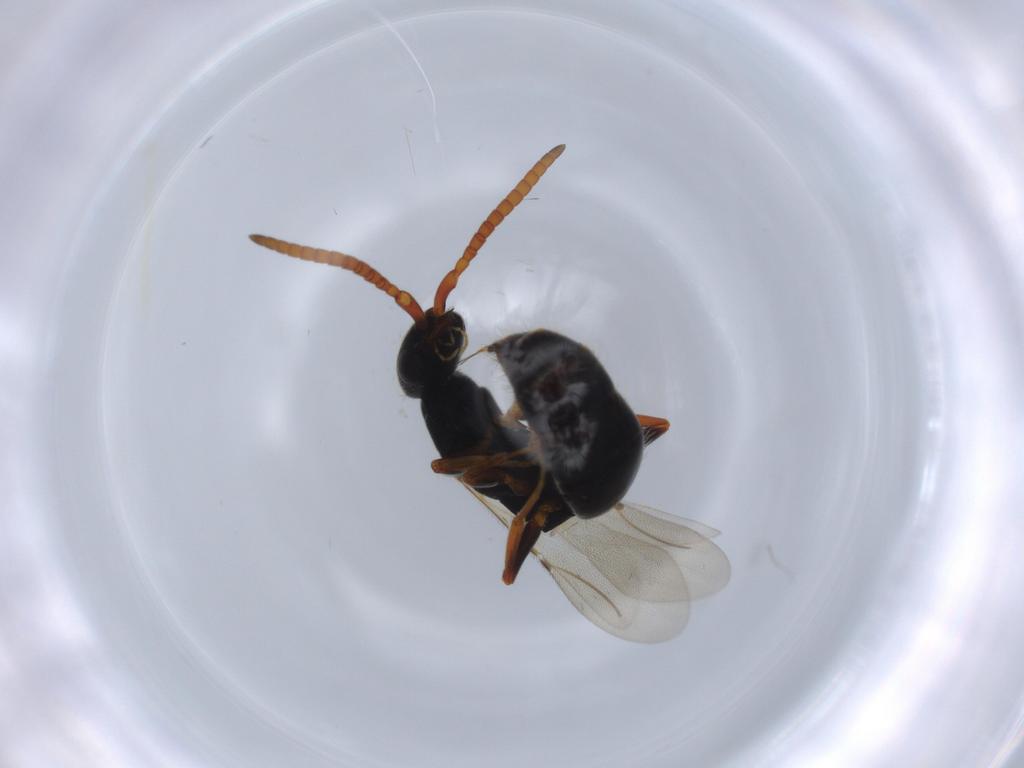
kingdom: Animalia
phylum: Arthropoda
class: Insecta
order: Hymenoptera
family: Bethylidae
